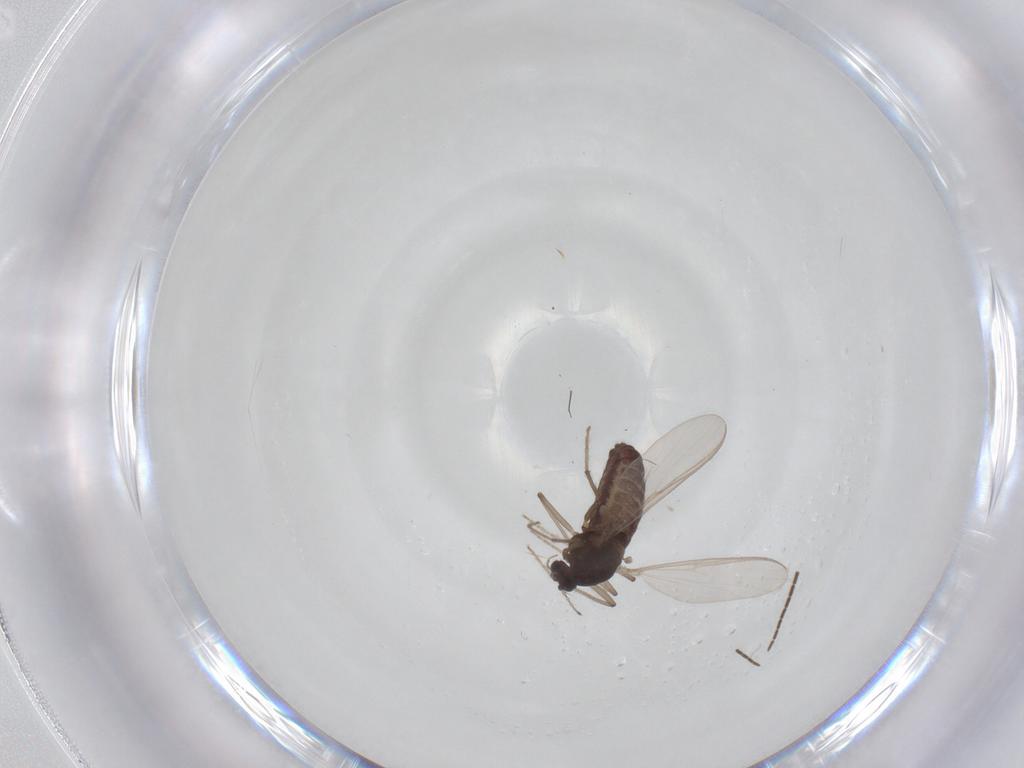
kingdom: Animalia
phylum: Arthropoda
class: Insecta
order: Diptera
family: Sciaridae
